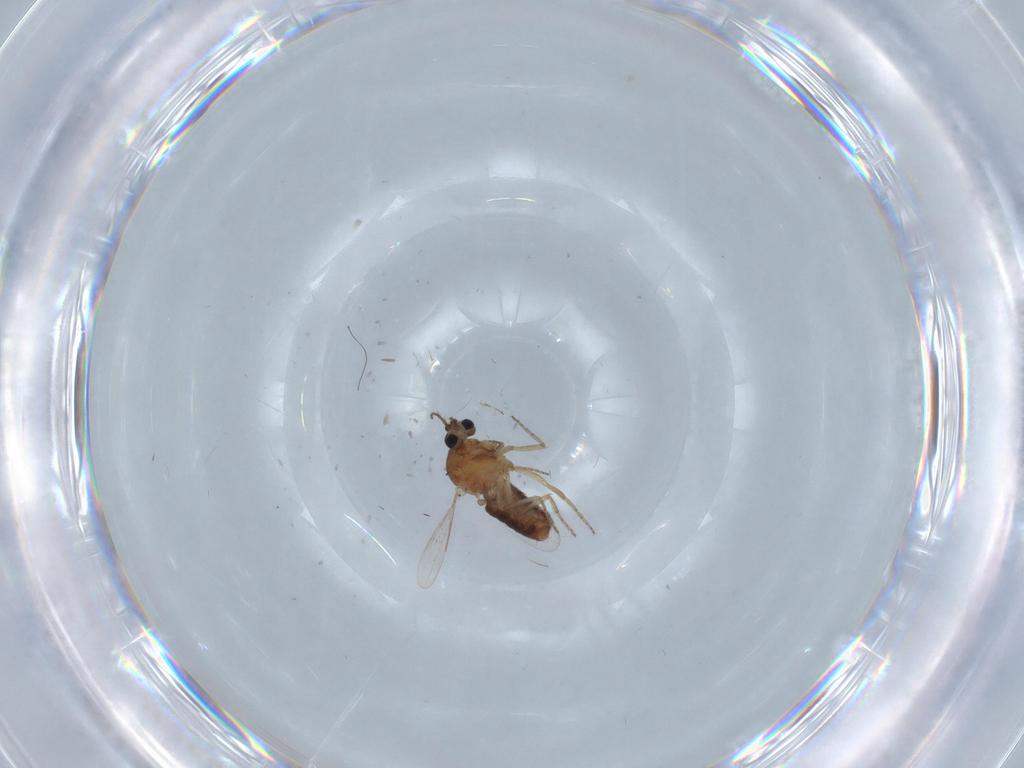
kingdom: Animalia
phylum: Arthropoda
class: Insecta
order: Diptera
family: Ceratopogonidae
